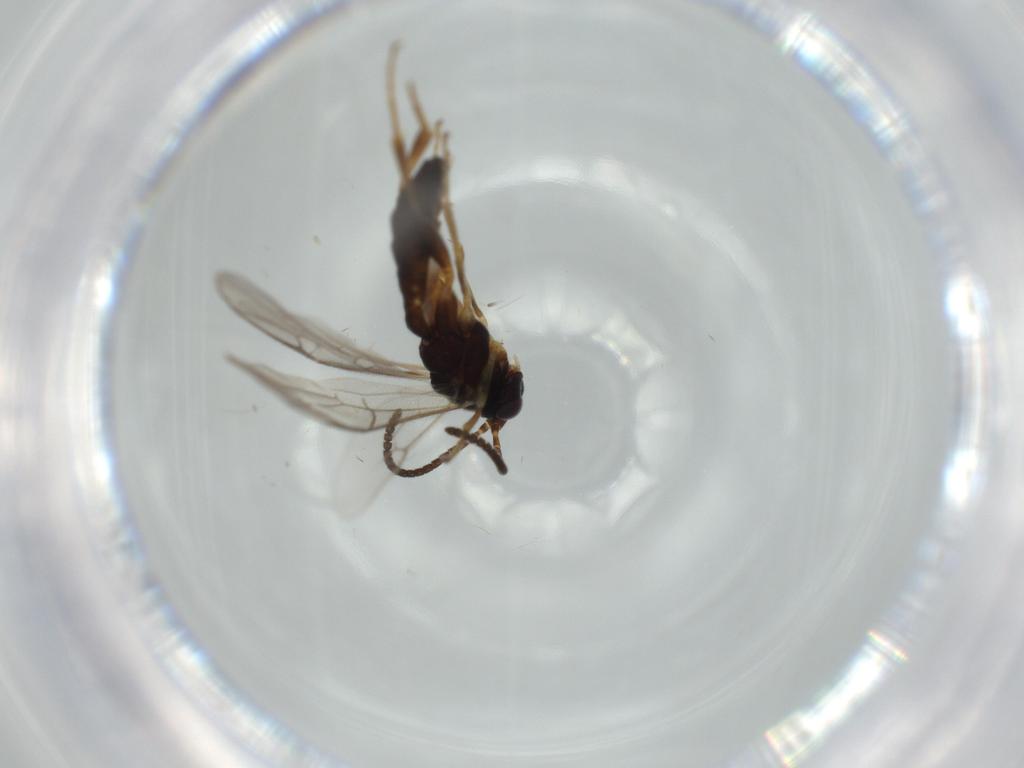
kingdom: Animalia
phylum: Arthropoda
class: Insecta
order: Hymenoptera
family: Ichneumonidae
